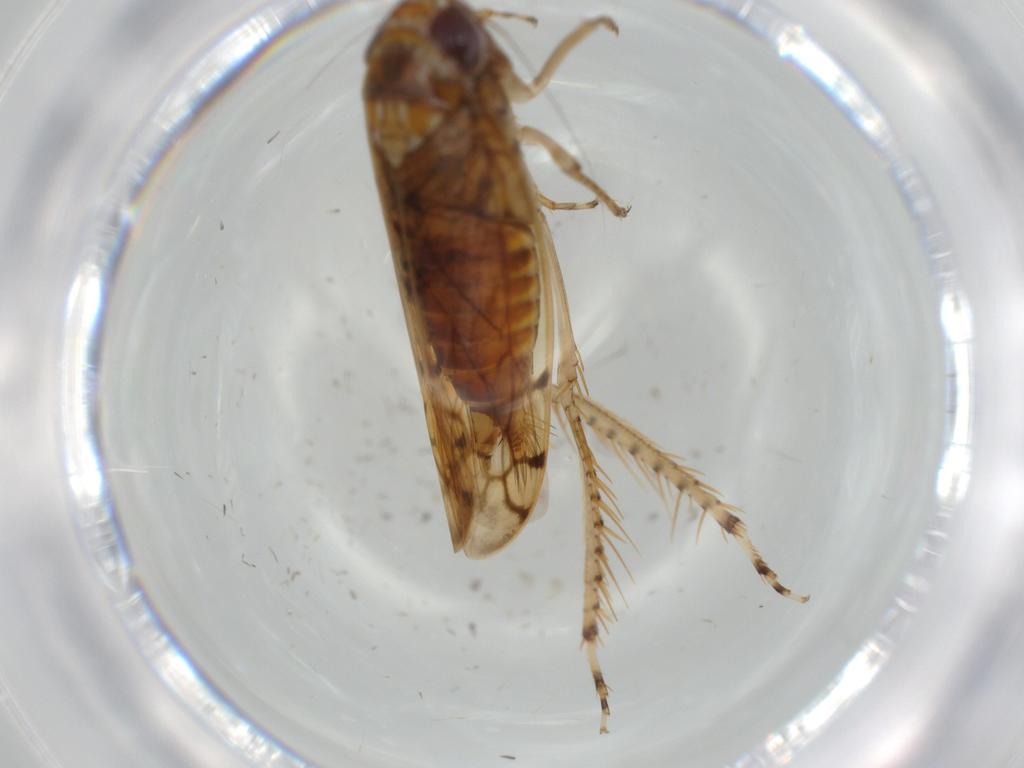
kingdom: Animalia
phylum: Arthropoda
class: Insecta
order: Hemiptera
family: Cicadellidae
